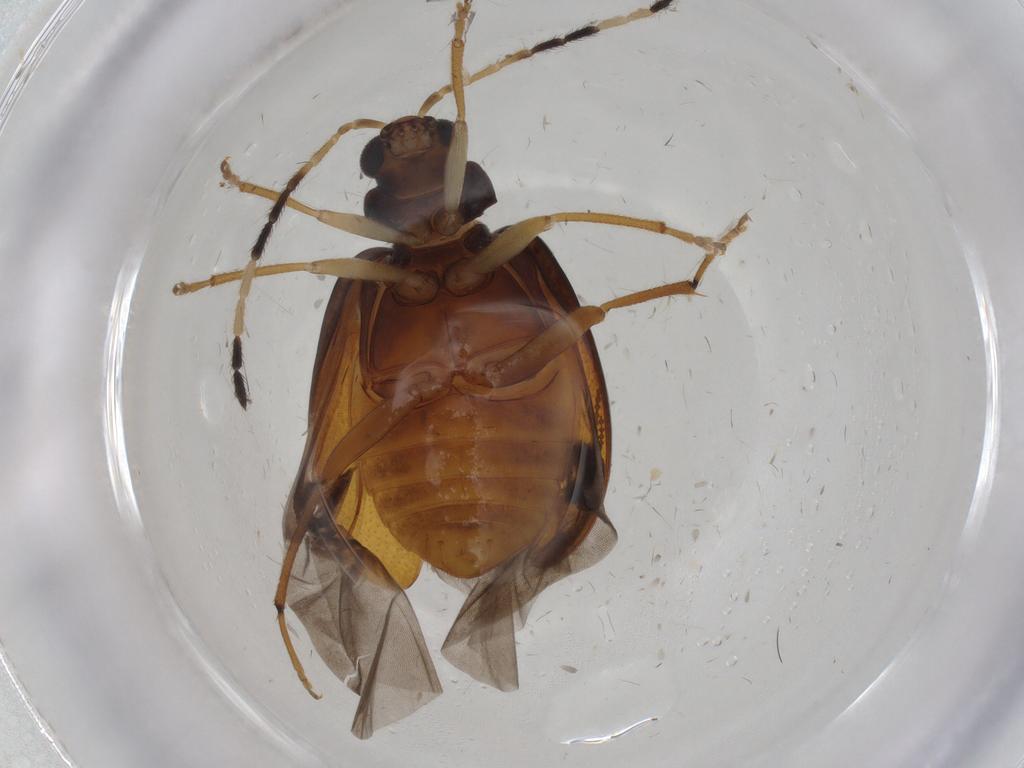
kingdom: Animalia
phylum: Arthropoda
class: Insecta
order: Coleoptera
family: Chrysomelidae
